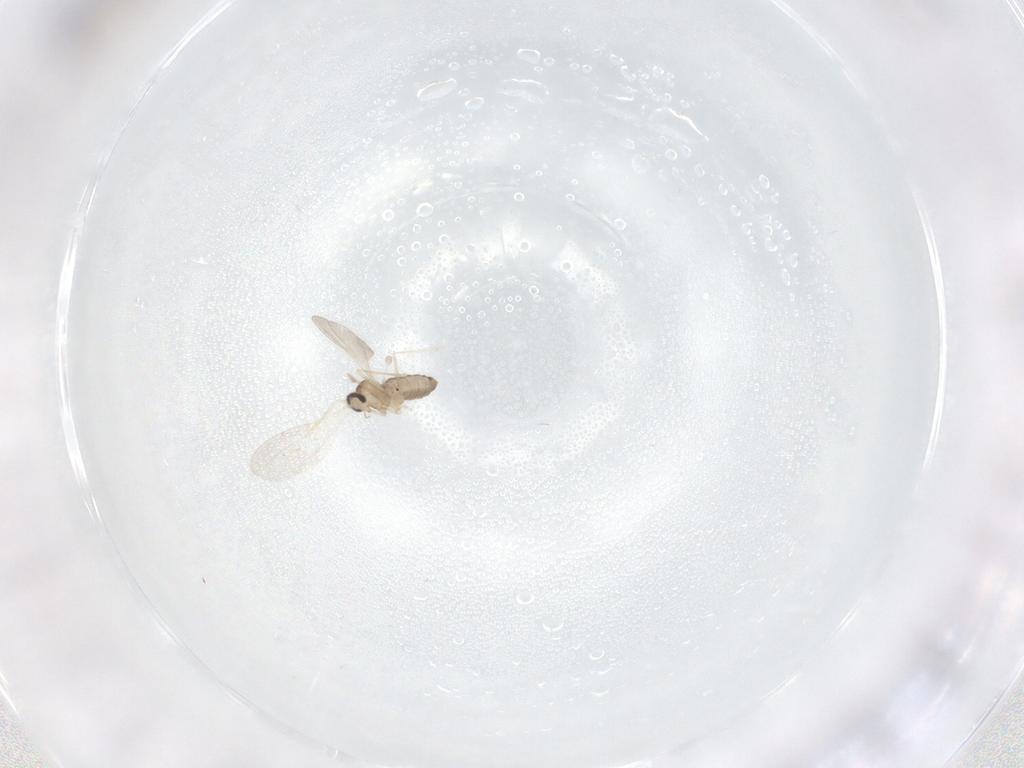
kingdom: Animalia
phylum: Arthropoda
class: Insecta
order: Diptera
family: Cecidomyiidae
